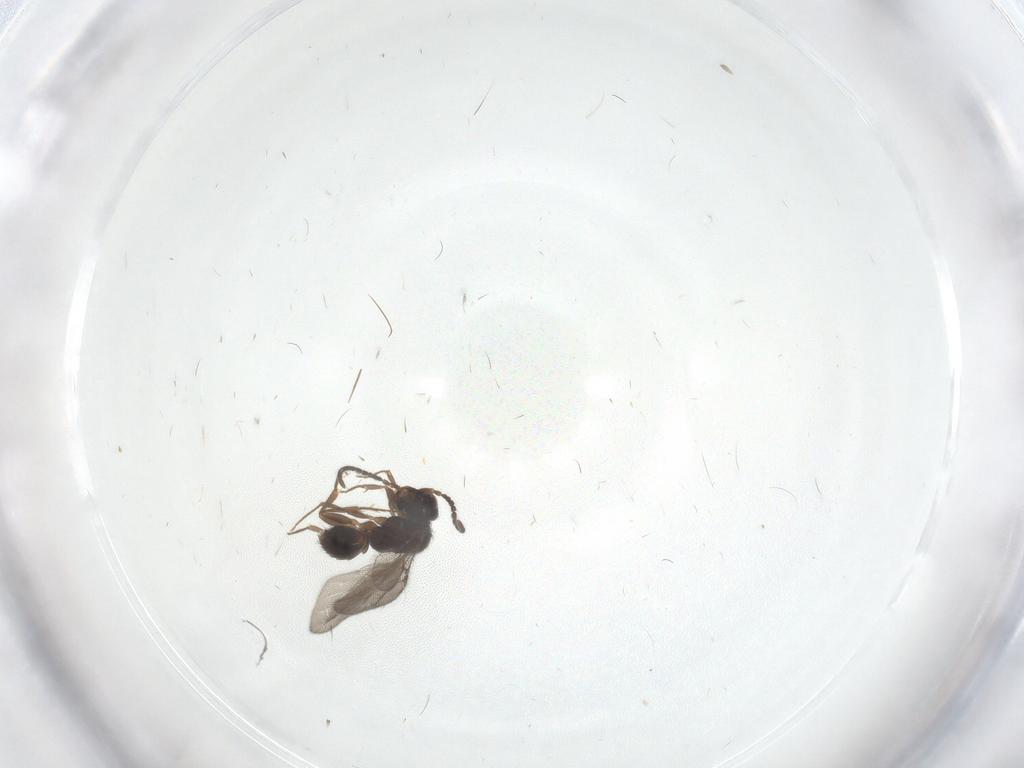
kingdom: Animalia
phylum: Arthropoda
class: Insecta
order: Hymenoptera
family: Bethylidae
